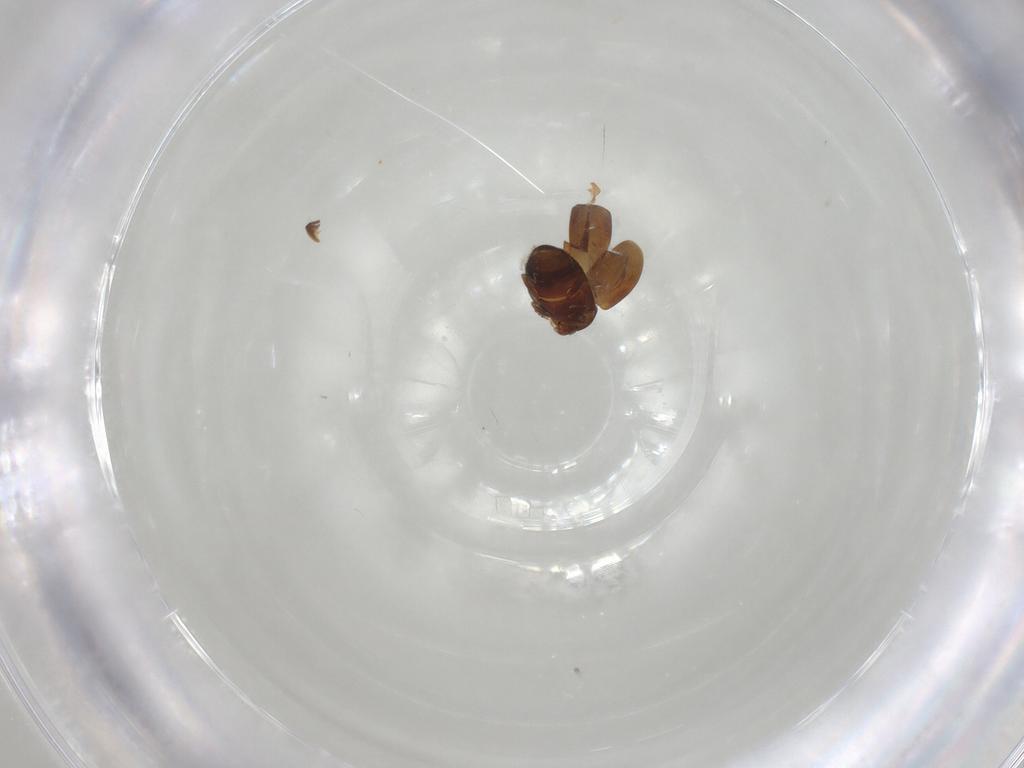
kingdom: Animalia
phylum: Arthropoda
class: Insecta
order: Coleoptera
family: Corylophidae
